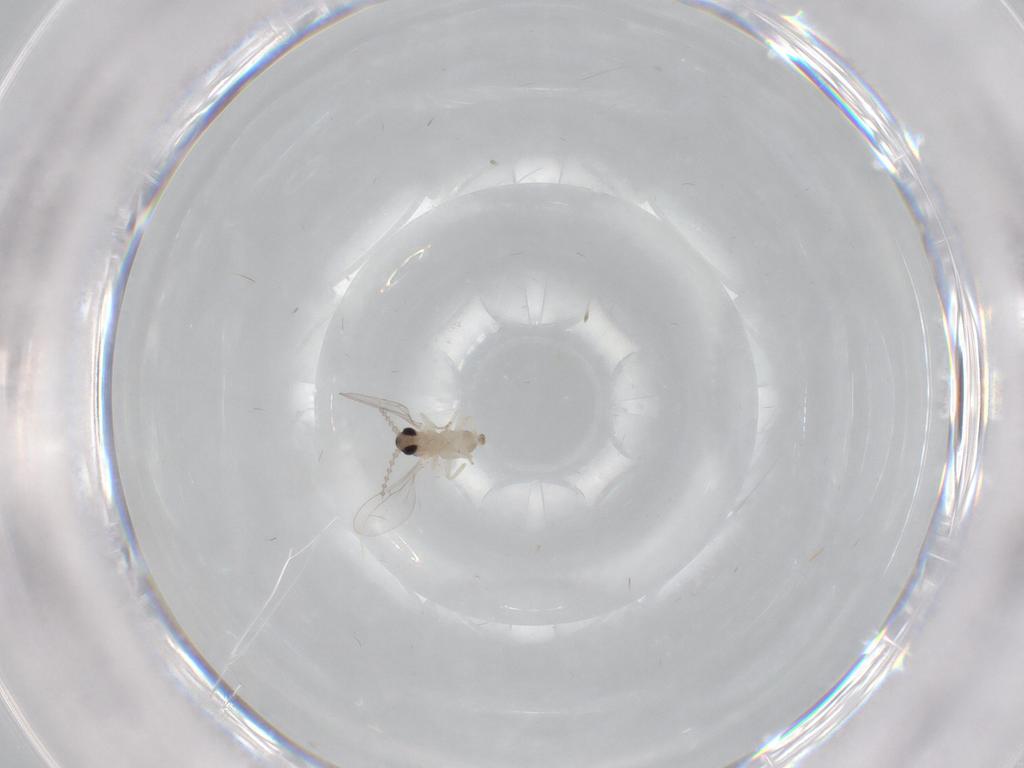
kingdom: Animalia
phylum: Arthropoda
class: Insecta
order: Diptera
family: Cecidomyiidae
